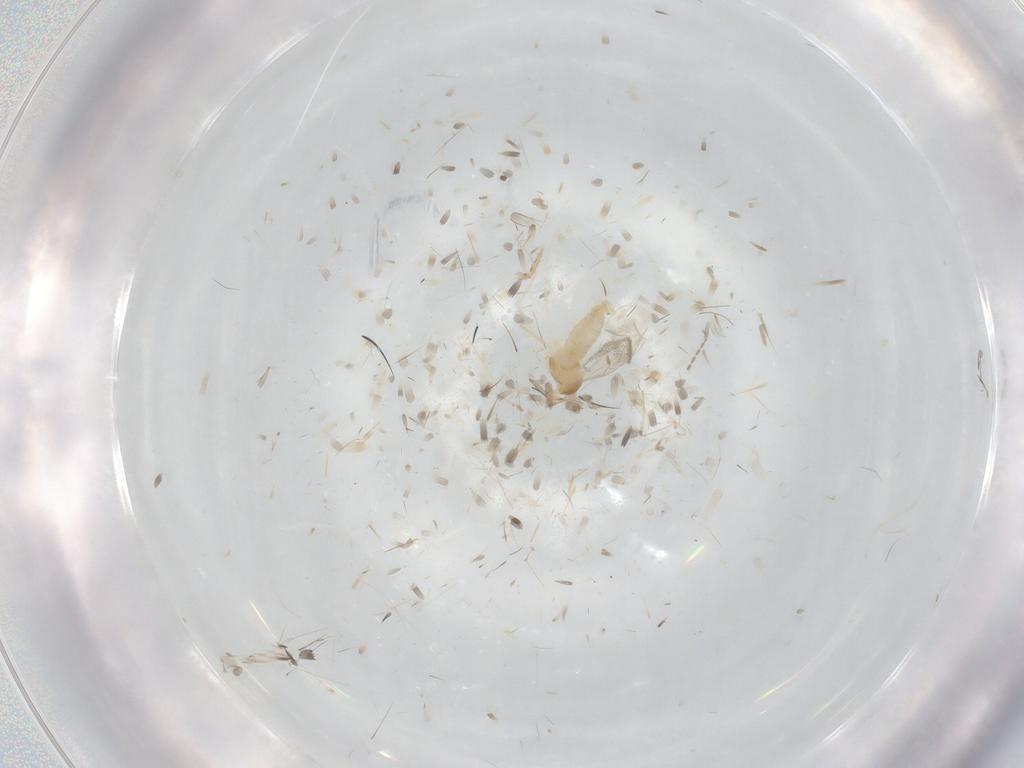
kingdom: Animalia
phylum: Arthropoda
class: Insecta
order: Diptera
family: Cecidomyiidae
